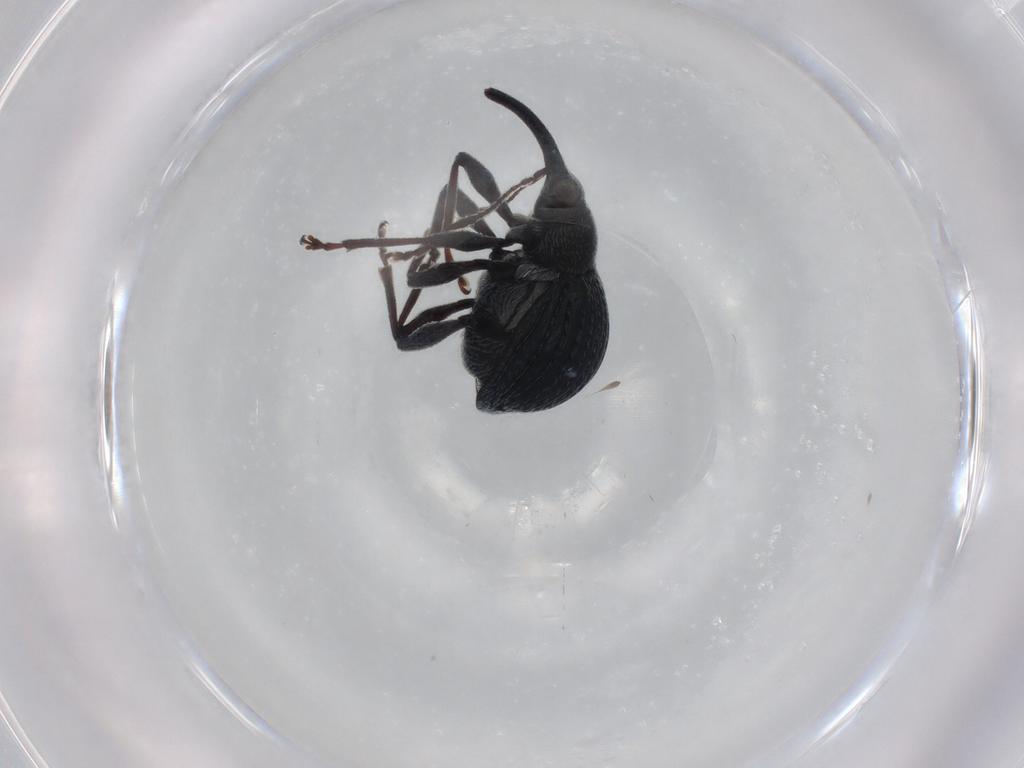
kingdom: Animalia
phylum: Arthropoda
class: Insecta
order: Coleoptera
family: Brentidae
